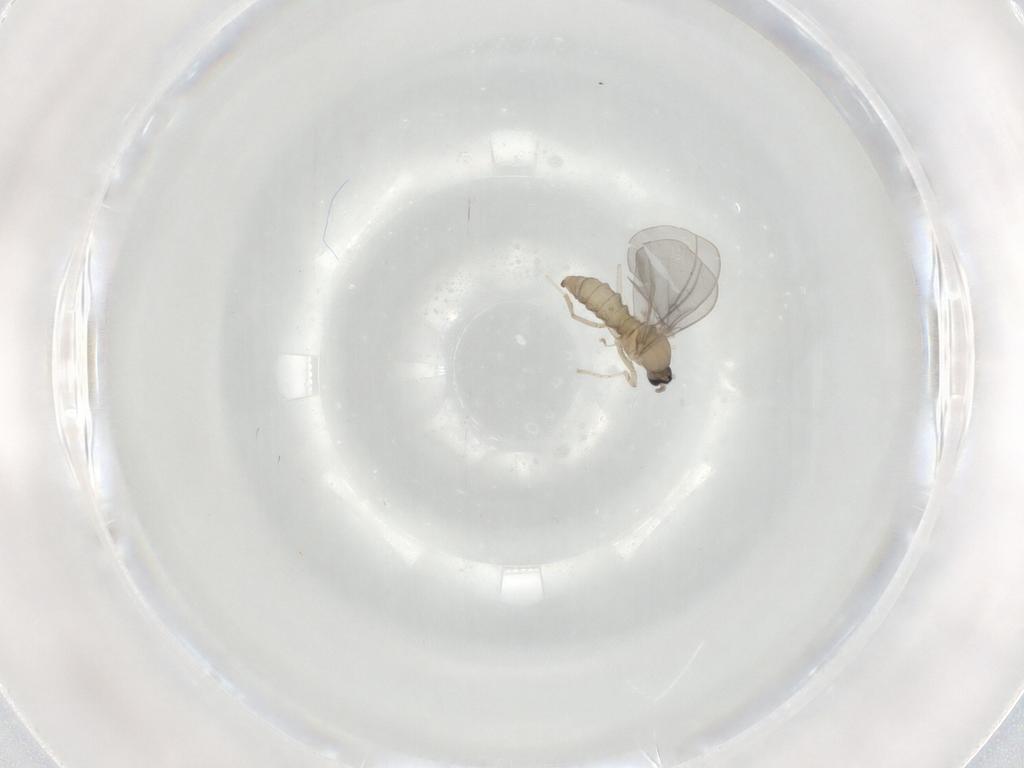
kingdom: Animalia
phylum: Arthropoda
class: Insecta
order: Diptera
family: Cecidomyiidae
